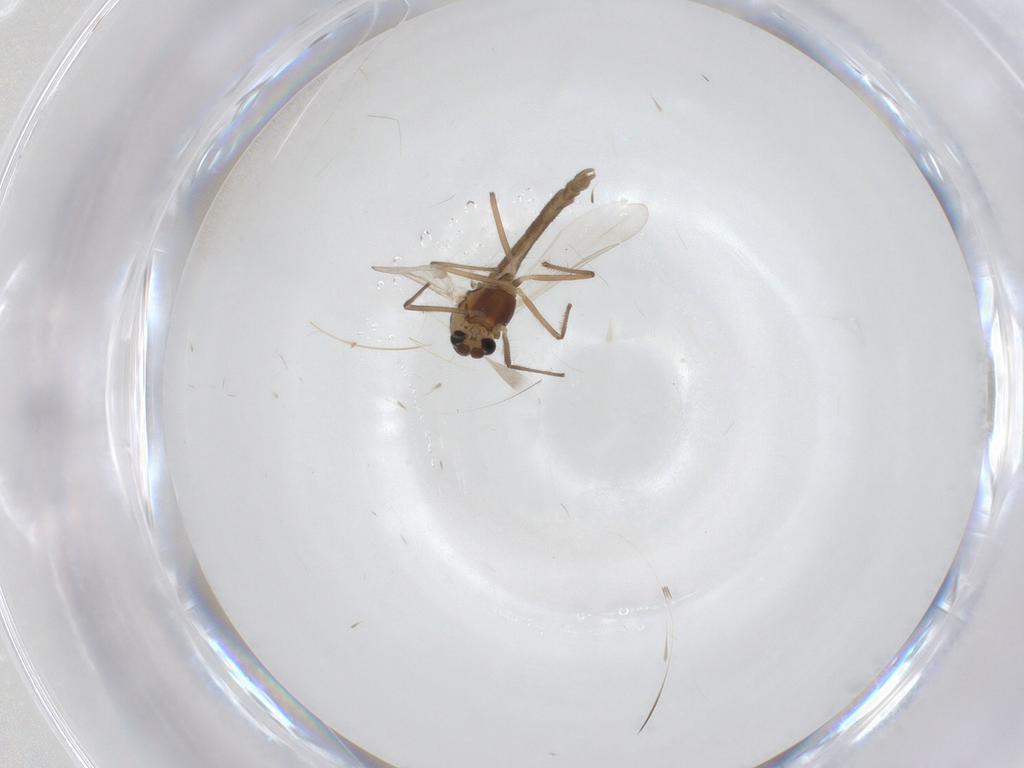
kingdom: Animalia
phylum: Arthropoda
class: Insecta
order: Diptera
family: Chironomidae
